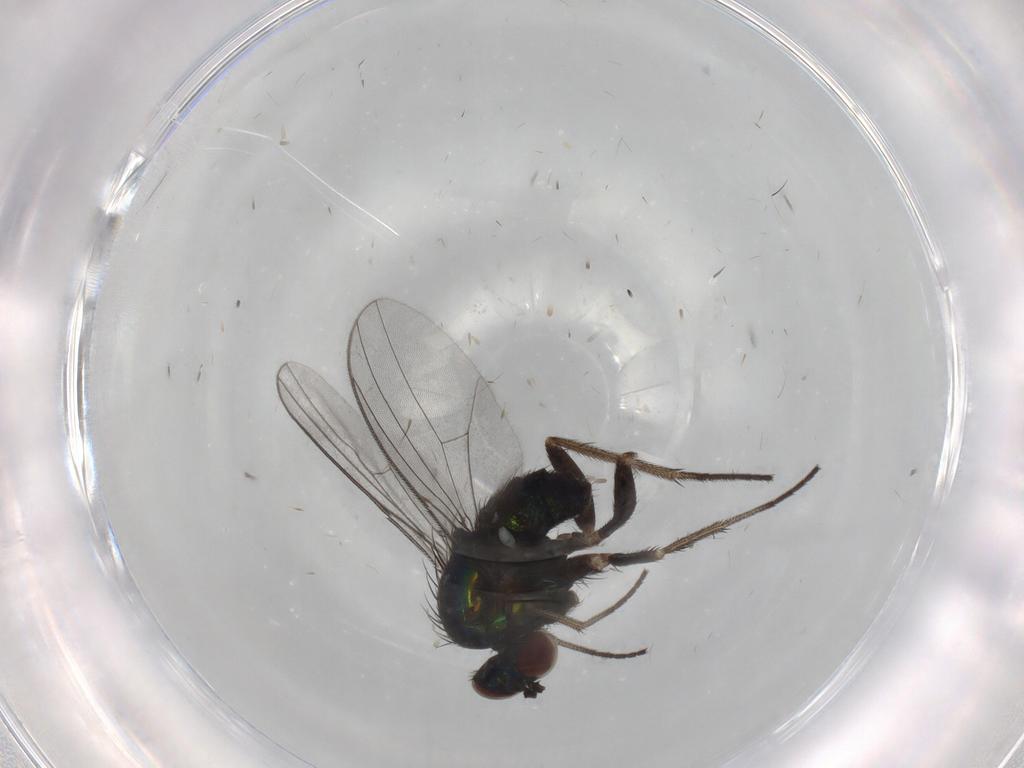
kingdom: Animalia
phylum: Arthropoda
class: Insecta
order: Diptera
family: Dolichopodidae
